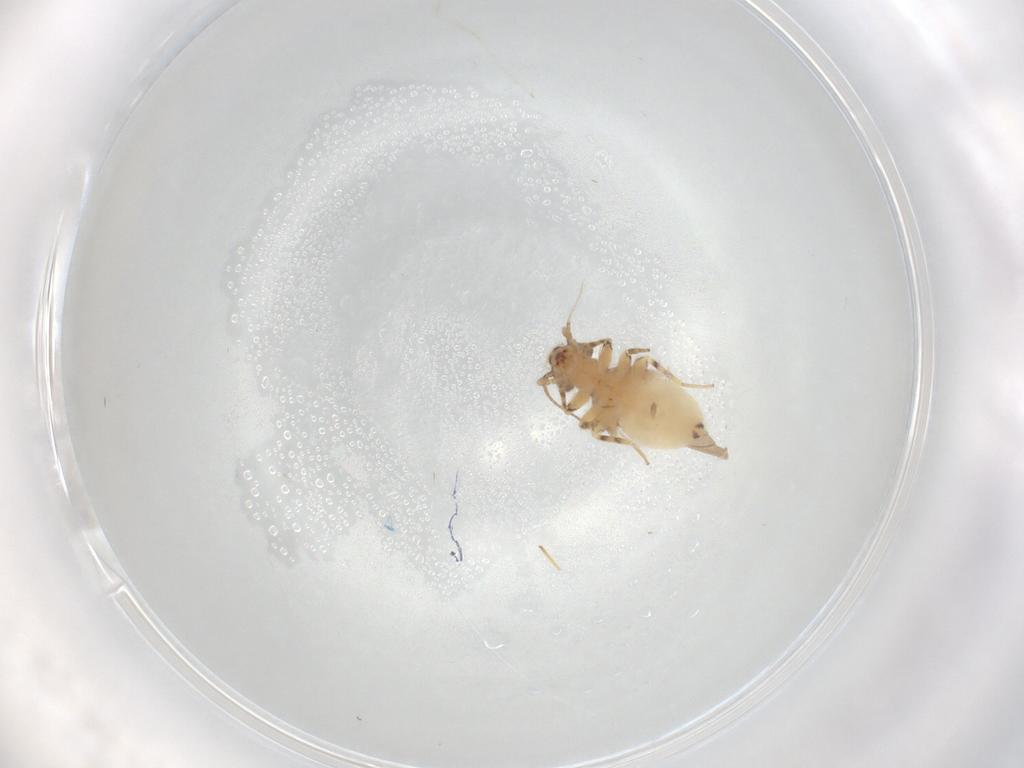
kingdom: Animalia
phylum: Arthropoda
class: Insecta
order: Psocodea
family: Lepidopsocidae
